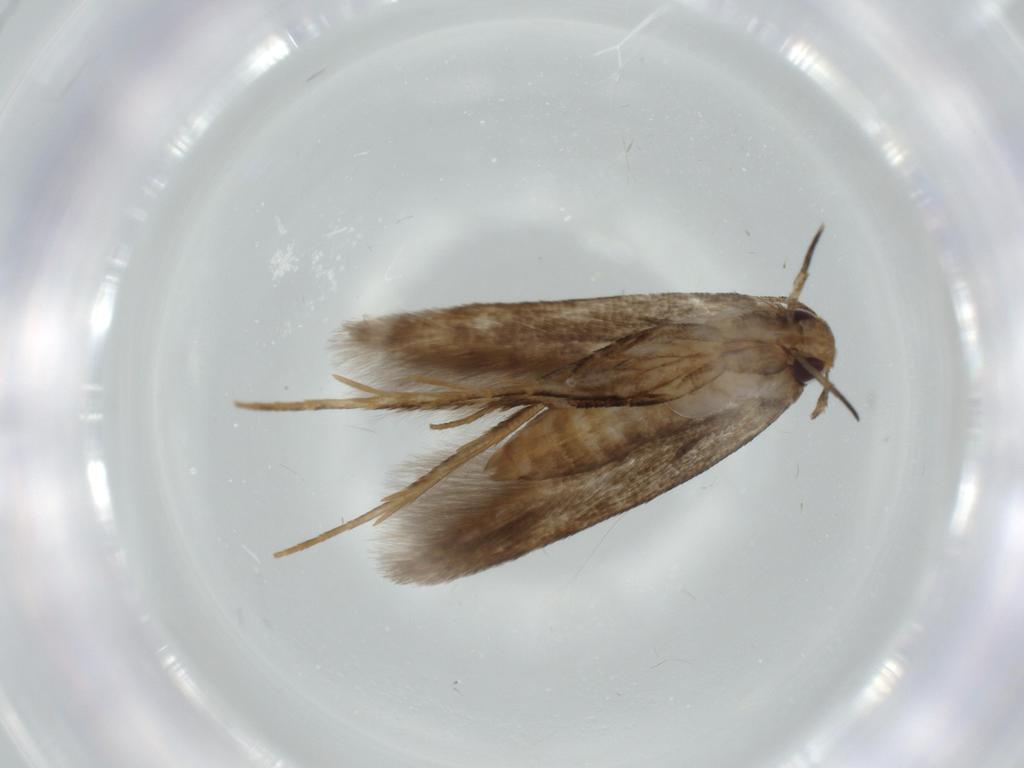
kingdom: Animalia
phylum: Arthropoda
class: Insecta
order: Lepidoptera
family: Gracillariidae
